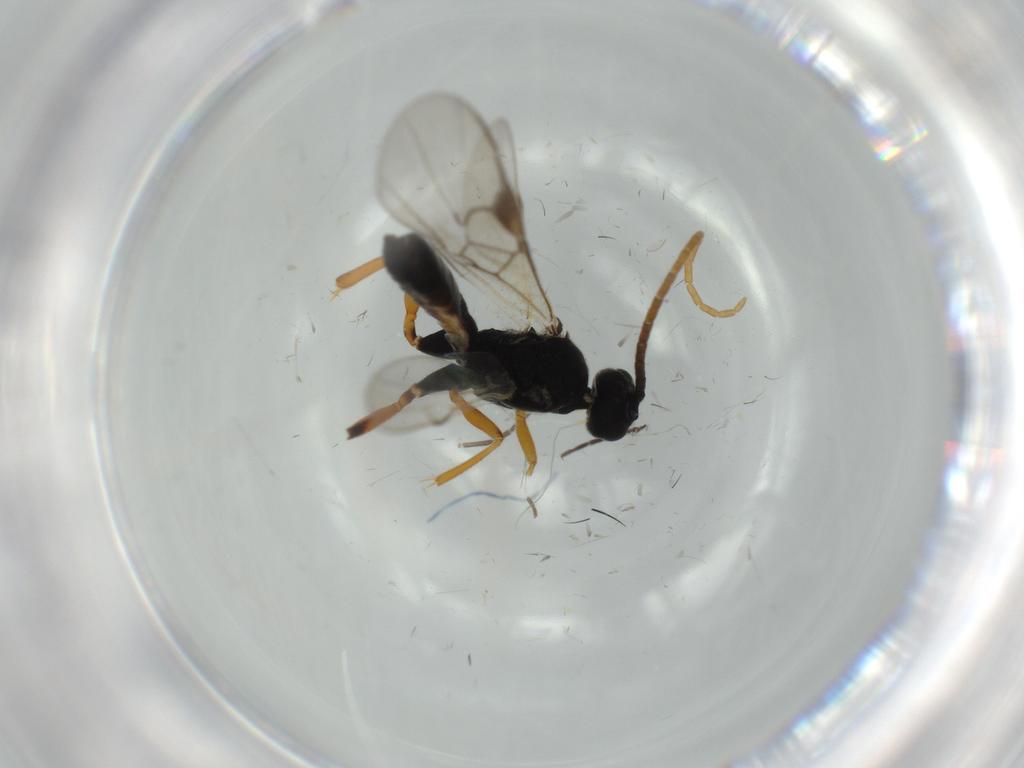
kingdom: Animalia
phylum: Arthropoda
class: Insecta
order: Hymenoptera
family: Braconidae
